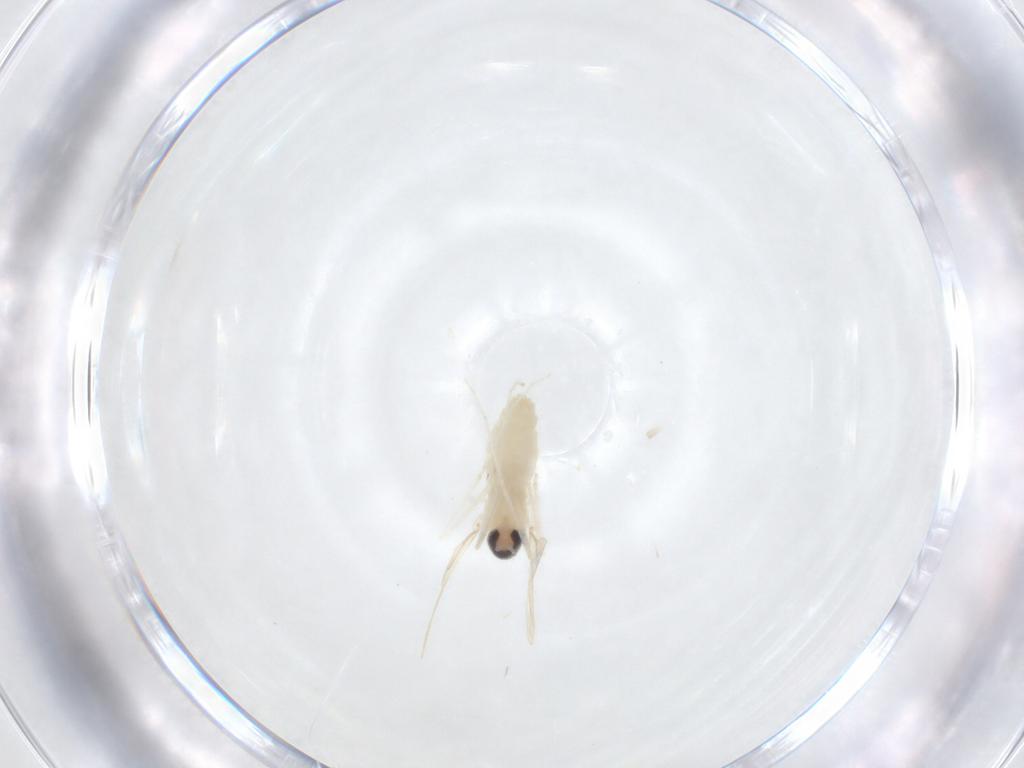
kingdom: Animalia
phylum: Arthropoda
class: Insecta
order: Diptera
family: Cecidomyiidae
